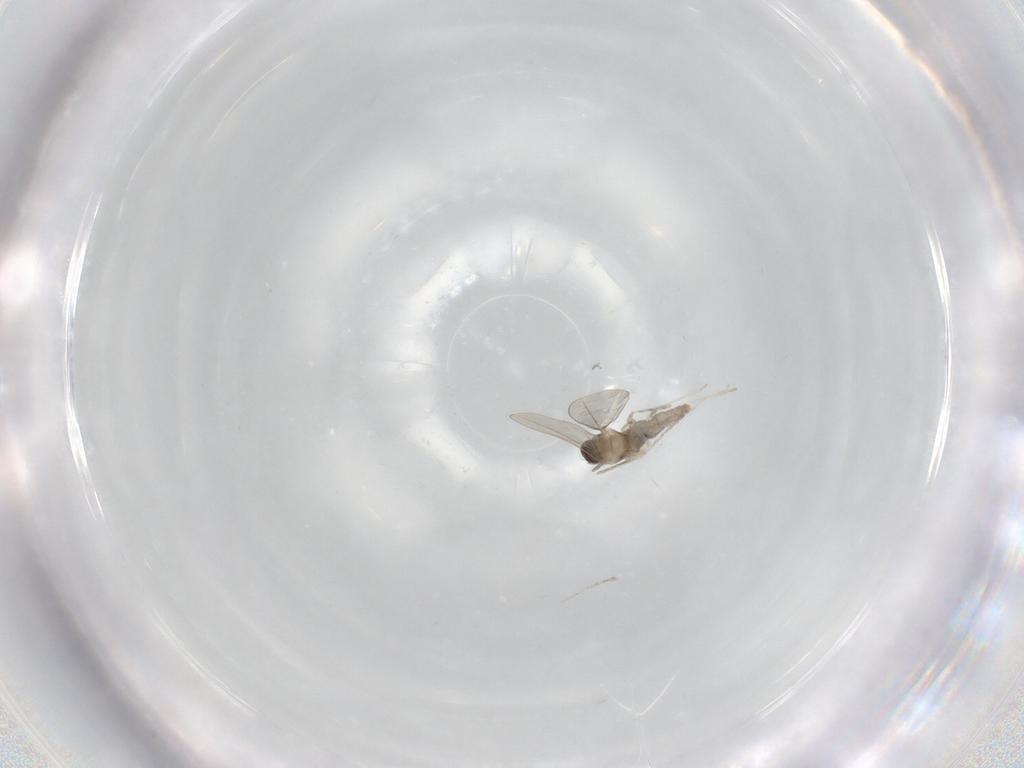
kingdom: Animalia
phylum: Arthropoda
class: Insecta
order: Diptera
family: Cecidomyiidae
